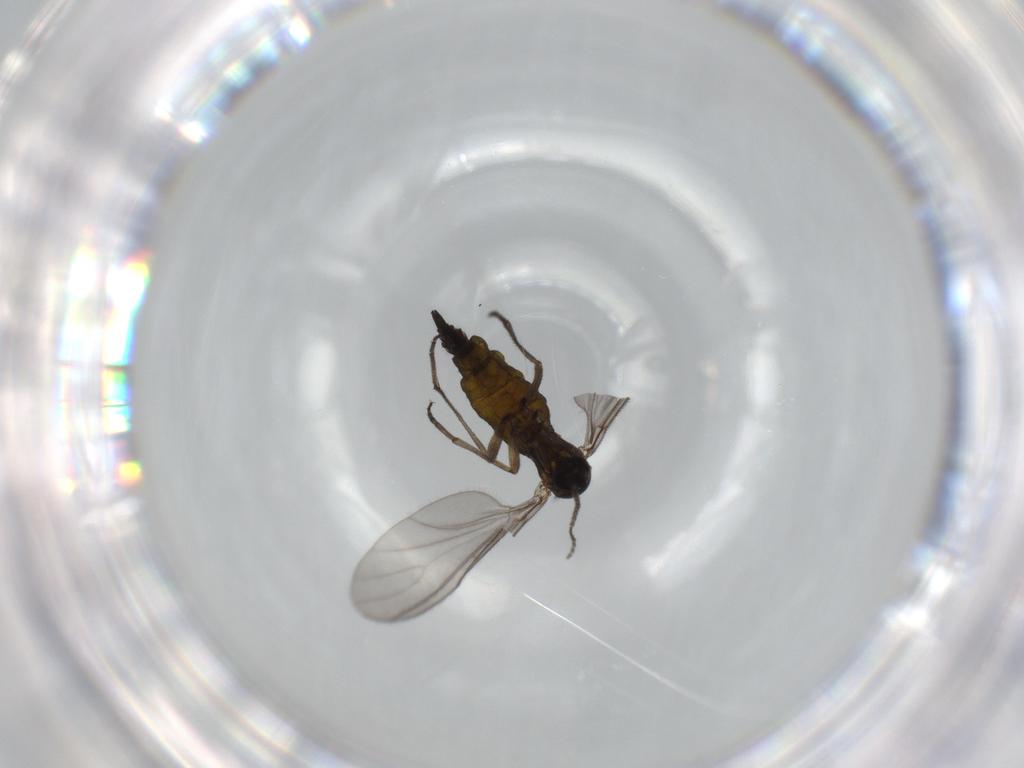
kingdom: Animalia
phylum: Arthropoda
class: Insecta
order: Diptera
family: Sciaridae
